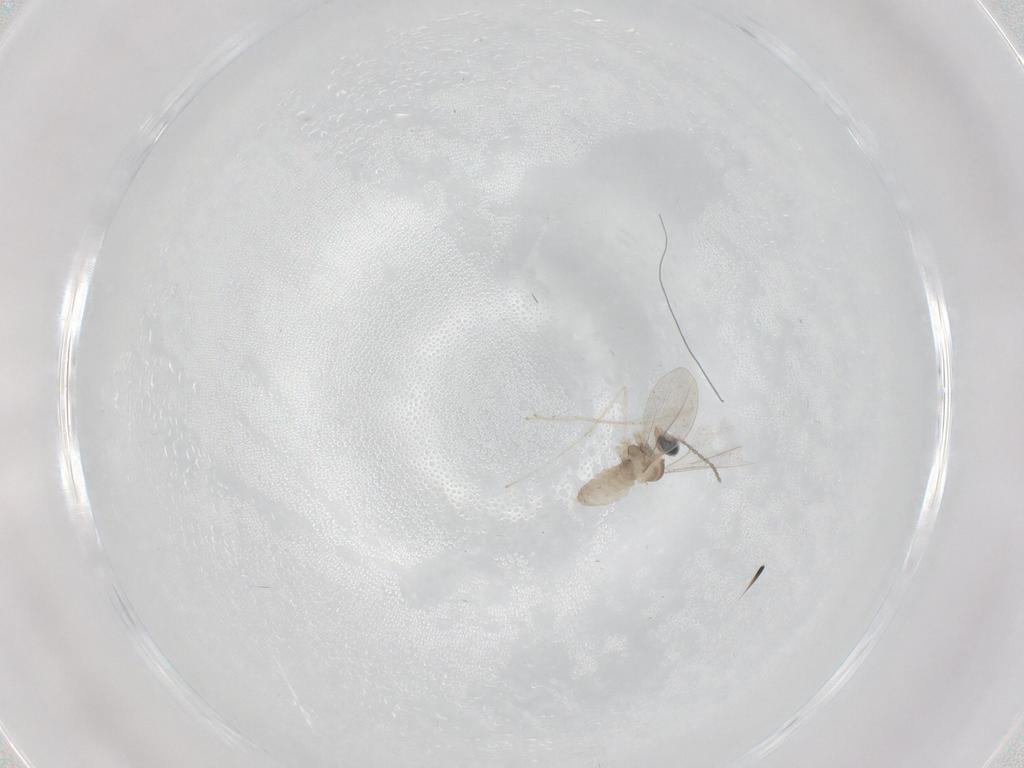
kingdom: Animalia
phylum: Arthropoda
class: Insecta
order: Diptera
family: Cecidomyiidae
